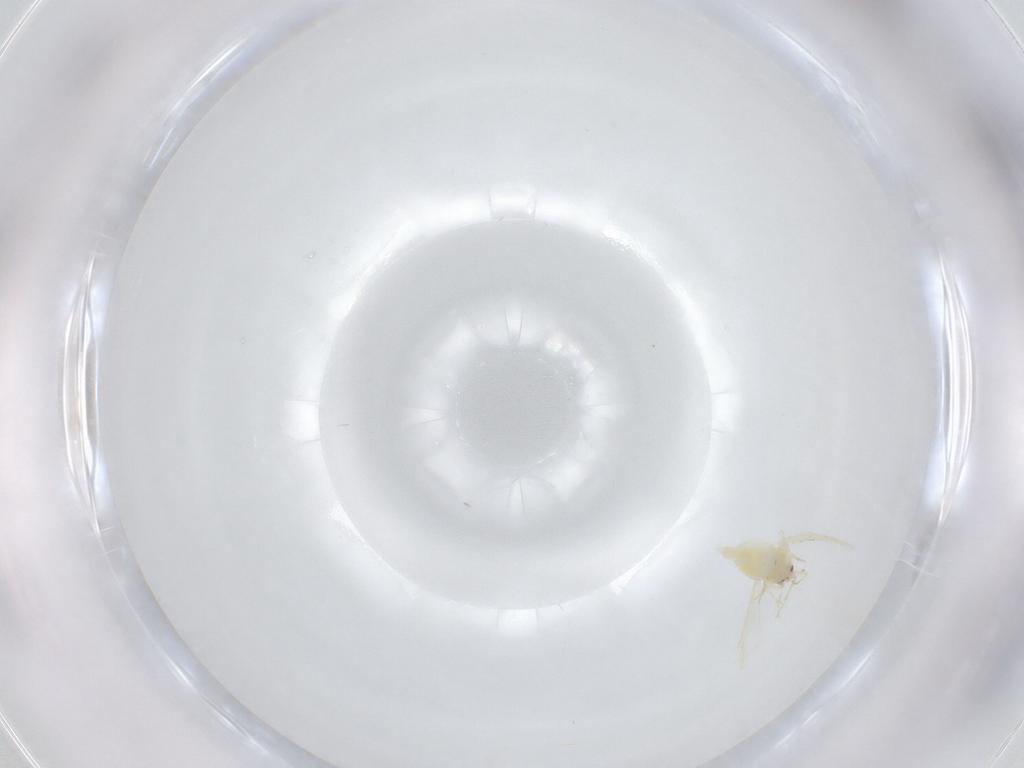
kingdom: Animalia
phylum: Arthropoda
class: Insecta
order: Hemiptera
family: Aleyrodidae
